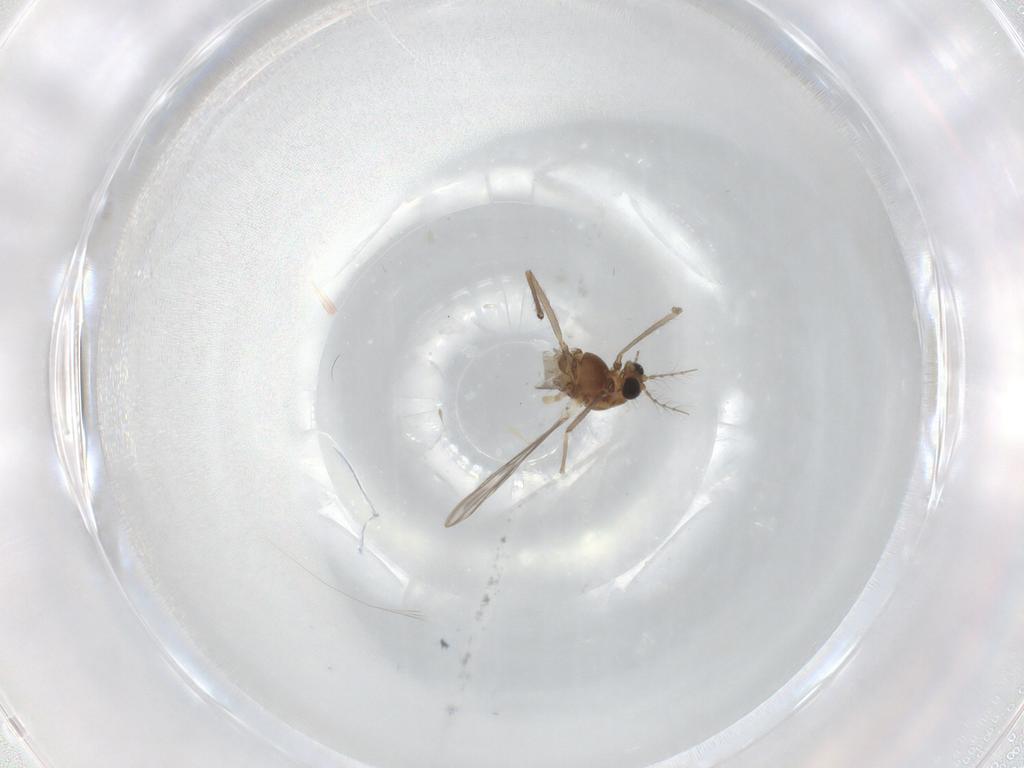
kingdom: Animalia
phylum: Arthropoda
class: Insecta
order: Diptera
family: Chironomidae
